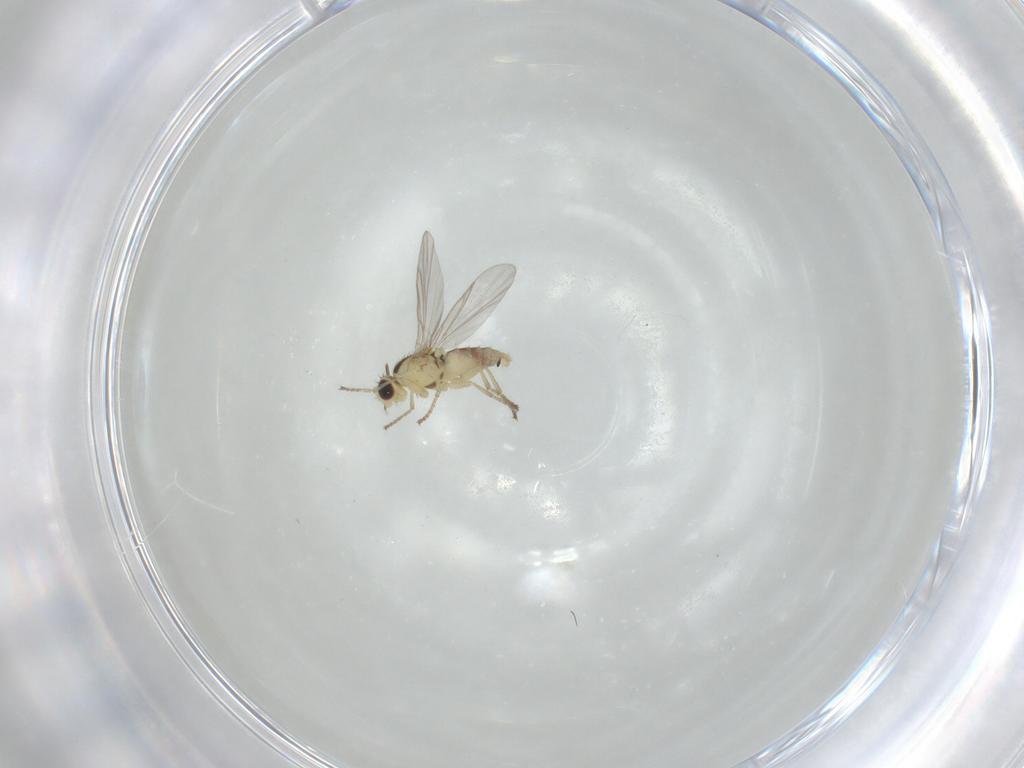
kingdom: Animalia
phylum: Arthropoda
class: Insecta
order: Diptera
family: Agromyzidae
